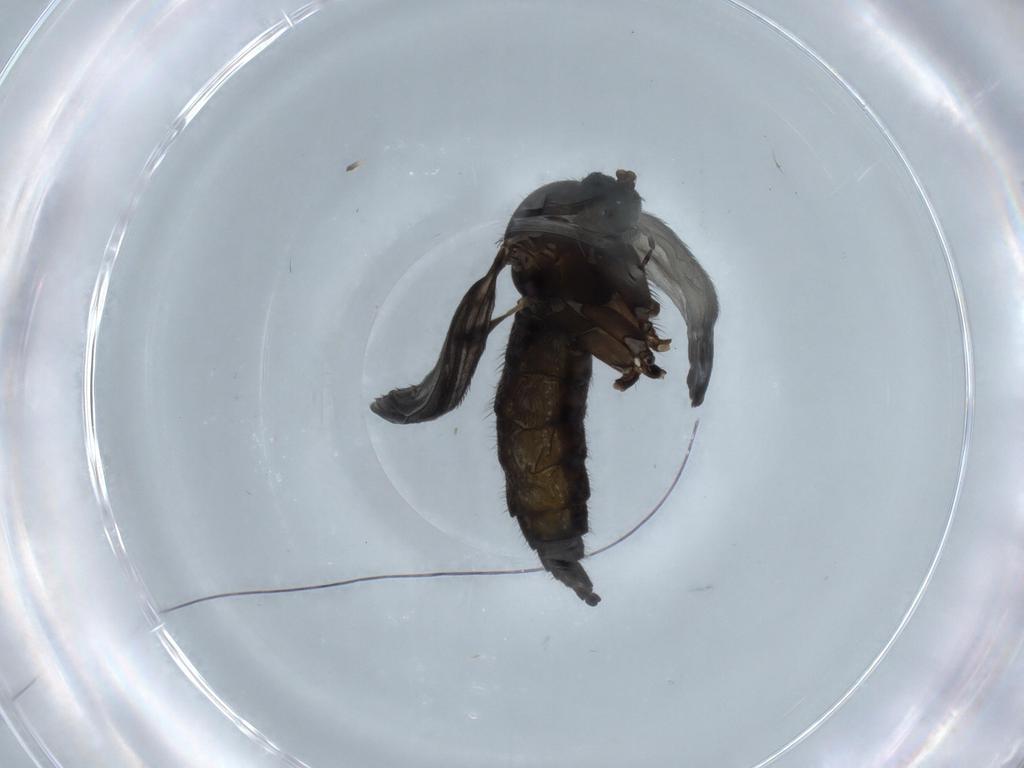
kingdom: Animalia
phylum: Arthropoda
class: Insecta
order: Diptera
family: Sciaridae
